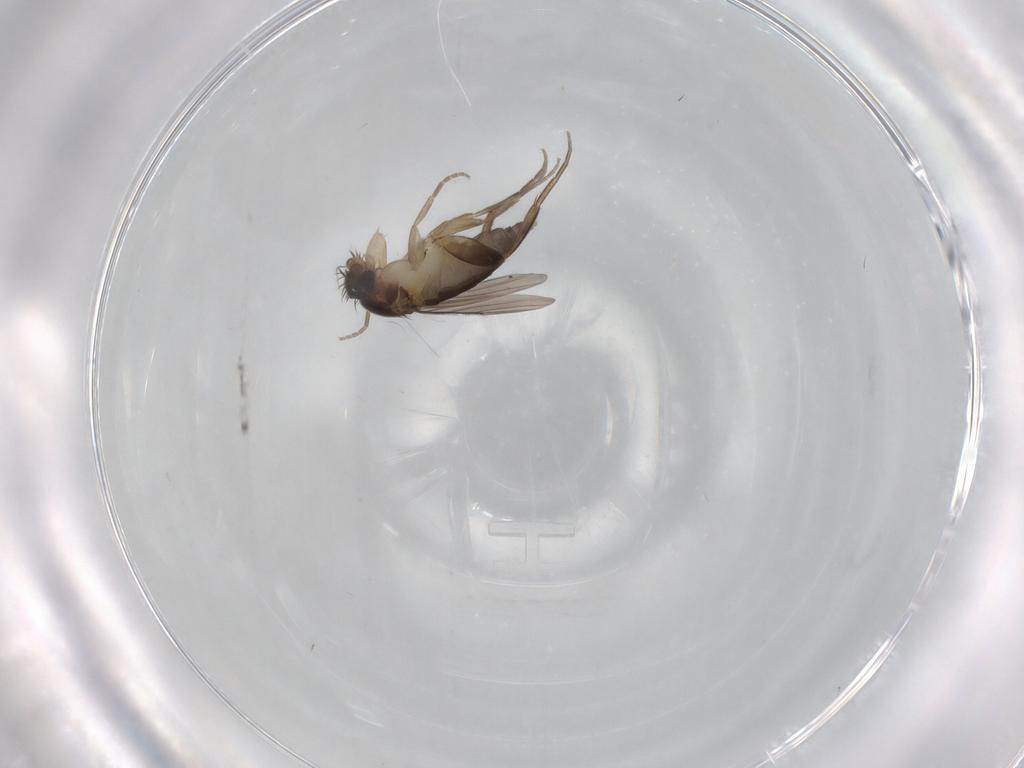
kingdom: Animalia
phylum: Arthropoda
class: Insecta
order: Diptera
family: Phoridae
